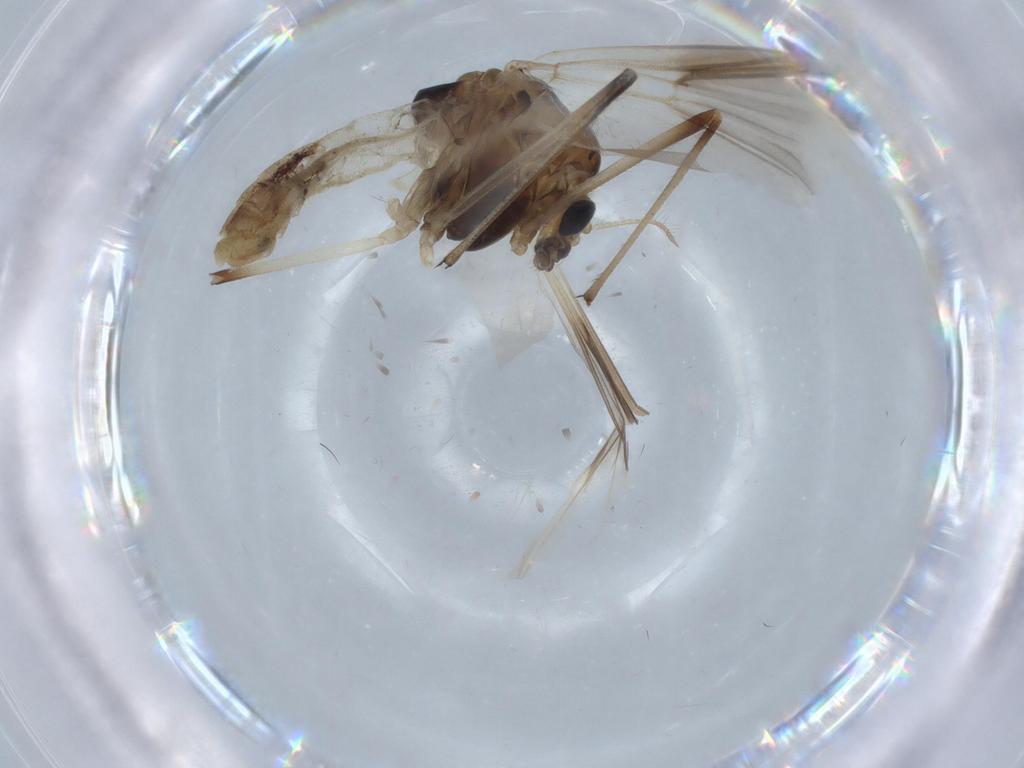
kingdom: Animalia
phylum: Arthropoda
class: Insecta
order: Diptera
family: Anthomyiidae
